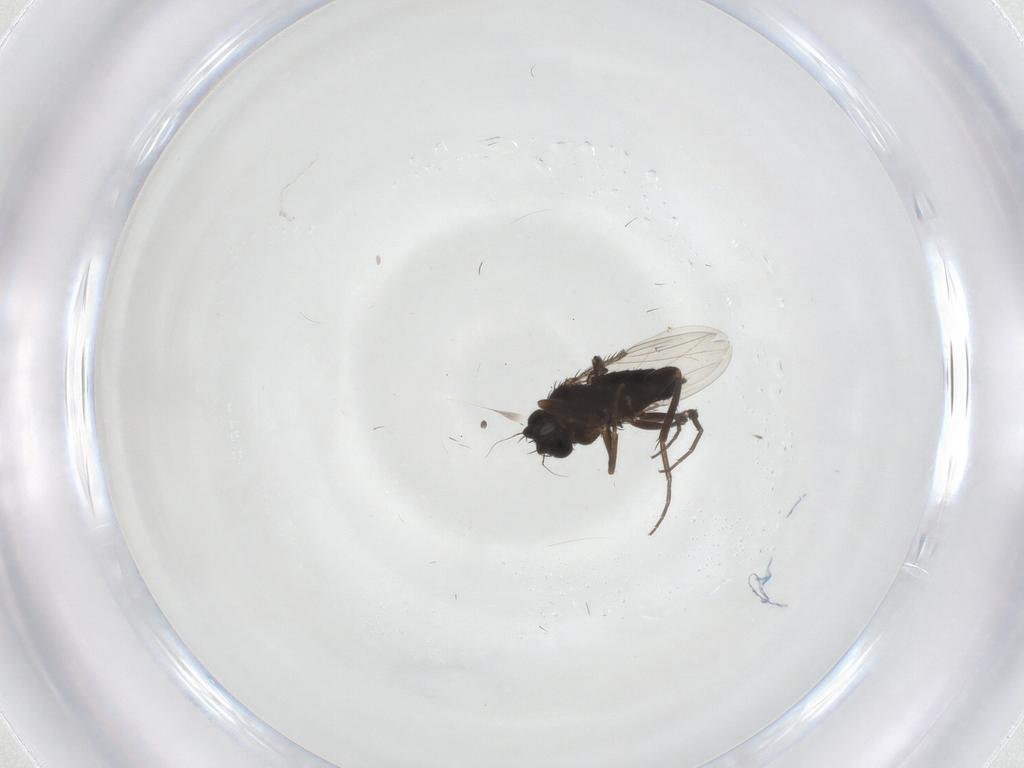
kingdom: Animalia
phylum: Arthropoda
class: Insecta
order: Diptera
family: Phoridae
